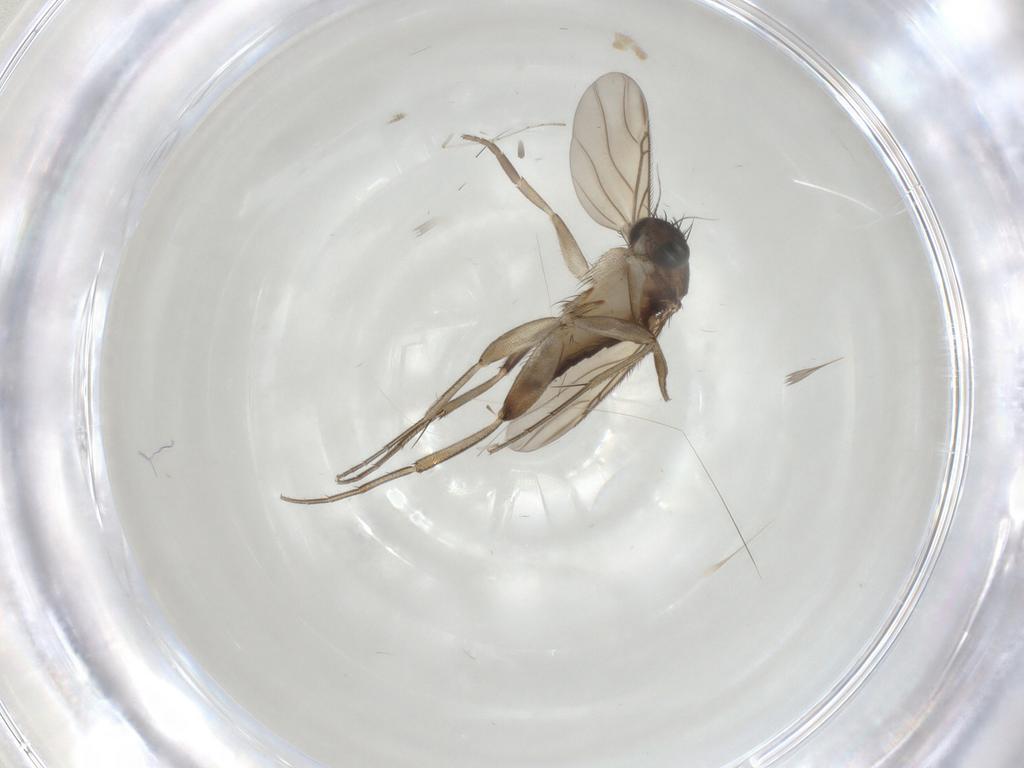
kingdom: Animalia
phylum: Arthropoda
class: Insecta
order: Diptera
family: Phoridae
